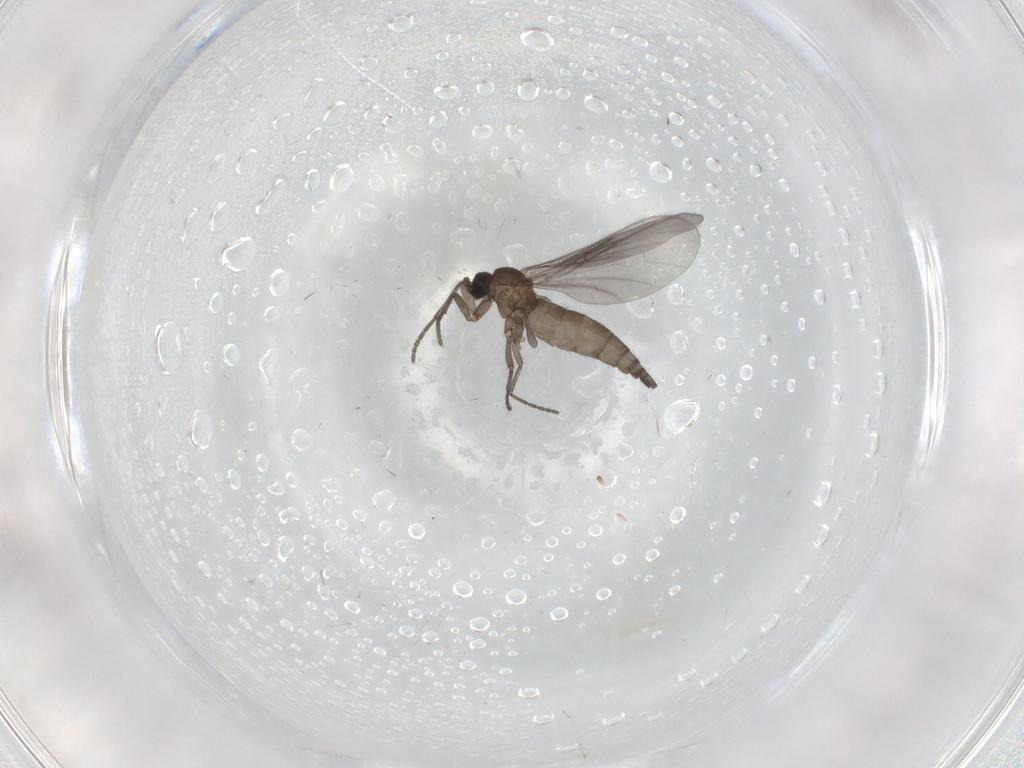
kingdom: Animalia
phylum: Arthropoda
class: Insecta
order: Diptera
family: Sciaridae
